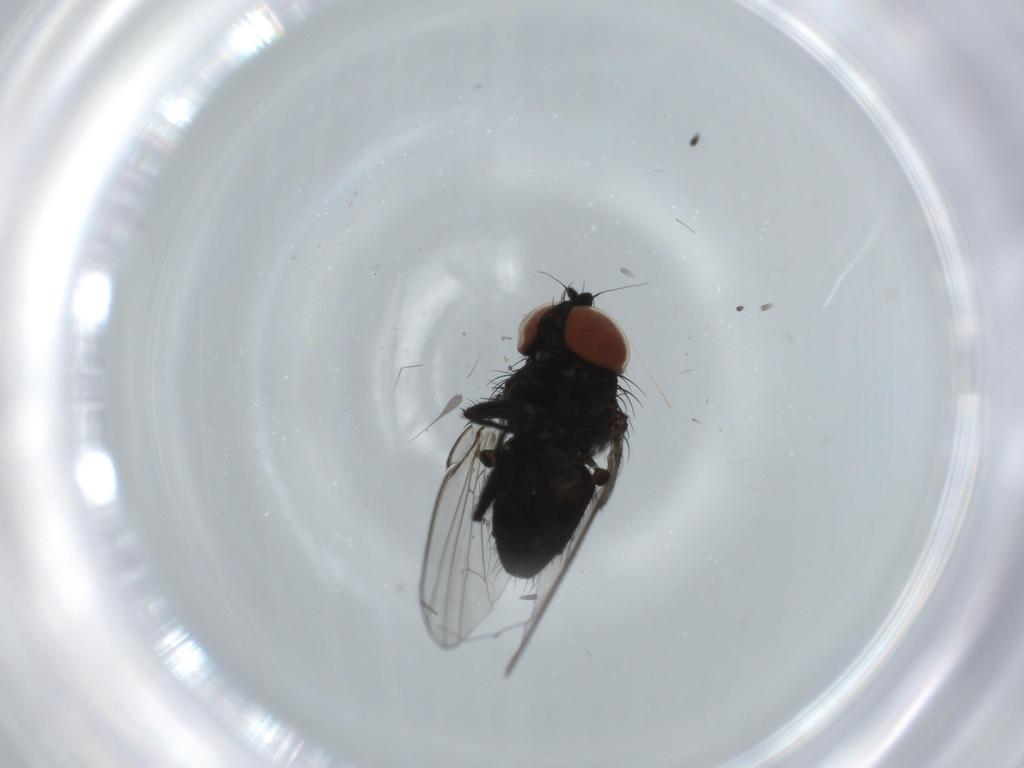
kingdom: Animalia
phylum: Arthropoda
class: Insecta
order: Diptera
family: Milichiidae
